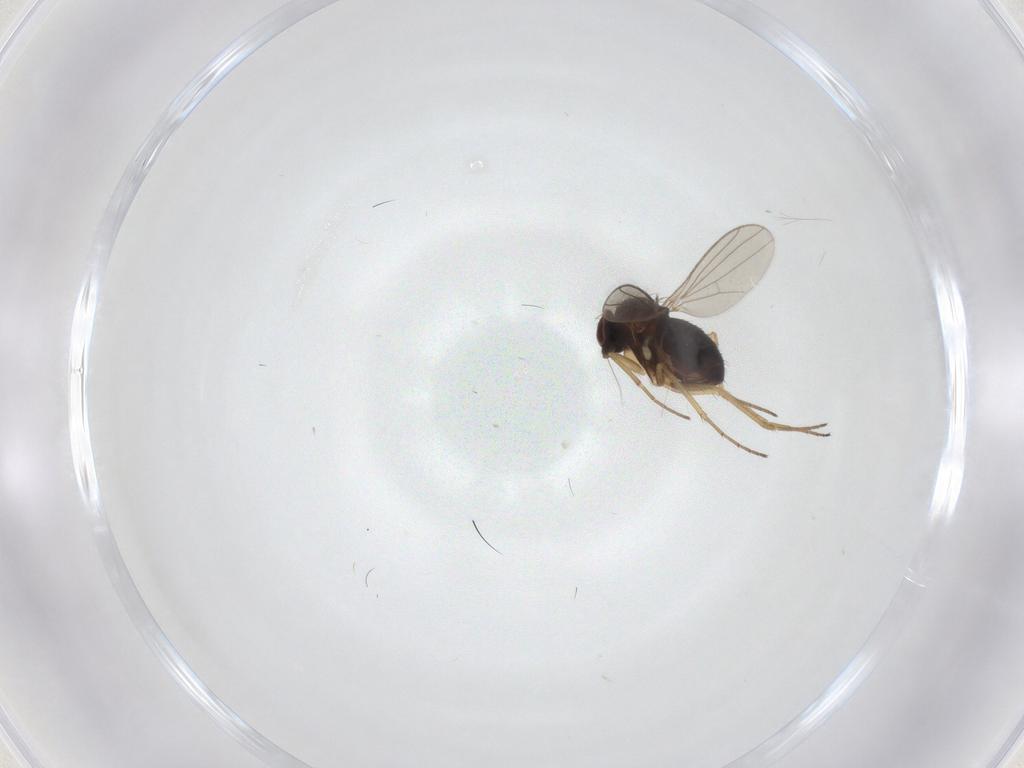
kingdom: Animalia
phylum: Arthropoda
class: Insecta
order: Diptera
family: Dolichopodidae
